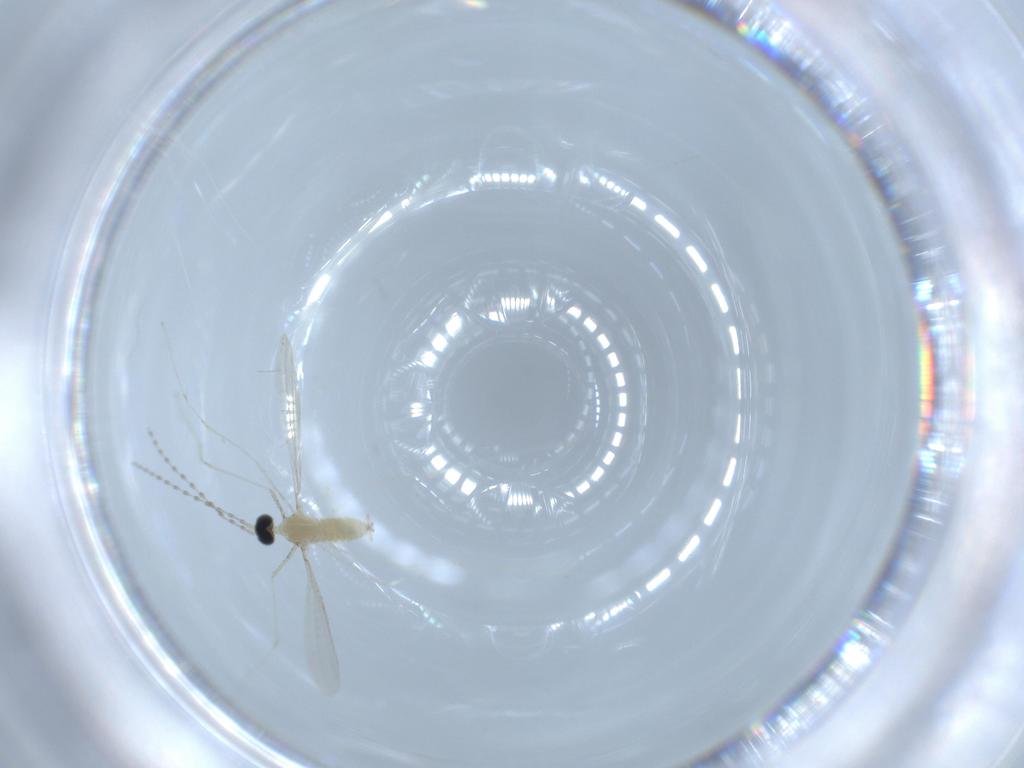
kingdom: Animalia
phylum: Arthropoda
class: Insecta
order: Diptera
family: Cecidomyiidae
